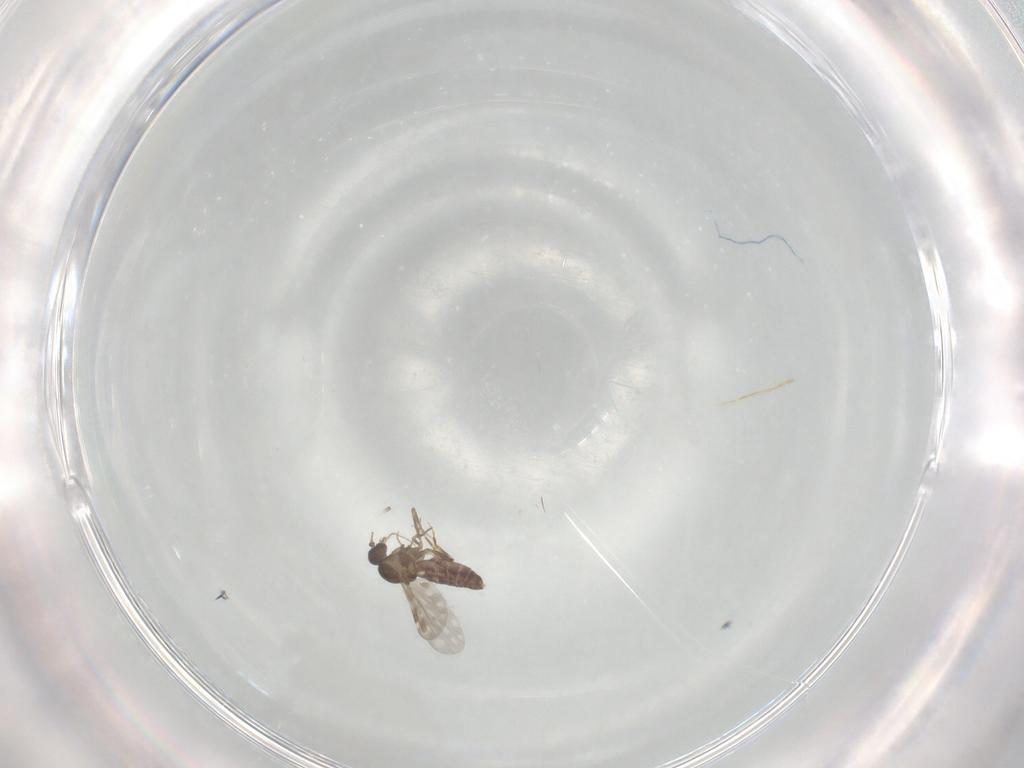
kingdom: Animalia
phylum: Arthropoda
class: Insecta
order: Diptera
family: Ceratopogonidae
